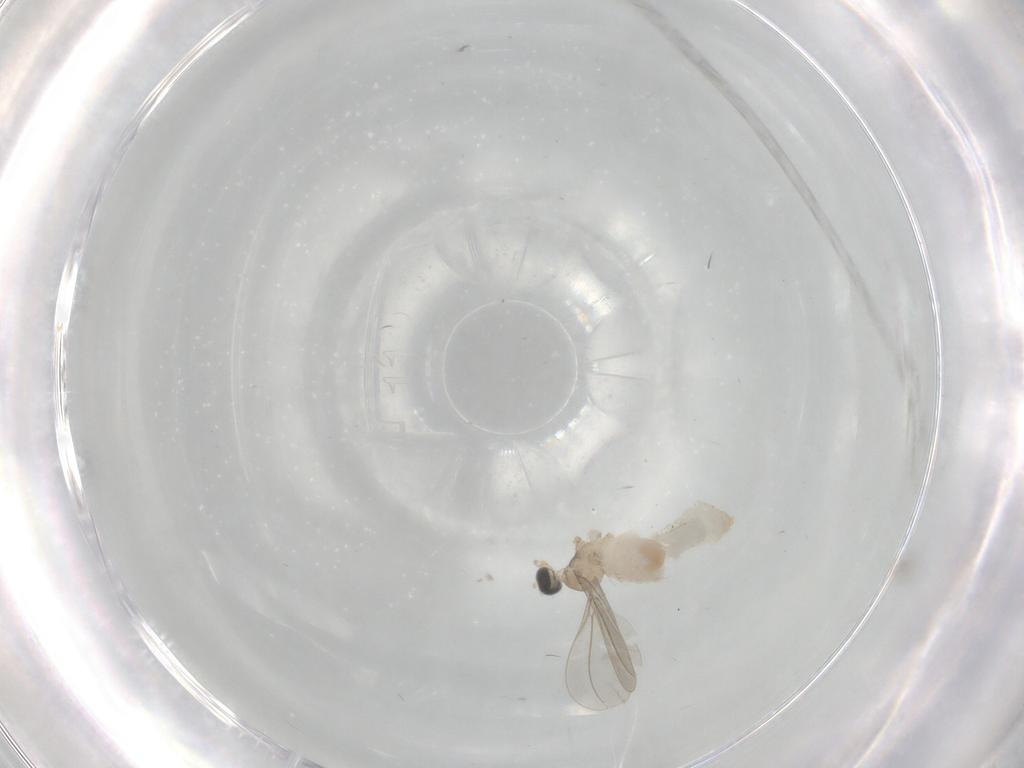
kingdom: Animalia
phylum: Arthropoda
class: Insecta
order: Diptera
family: Cecidomyiidae
